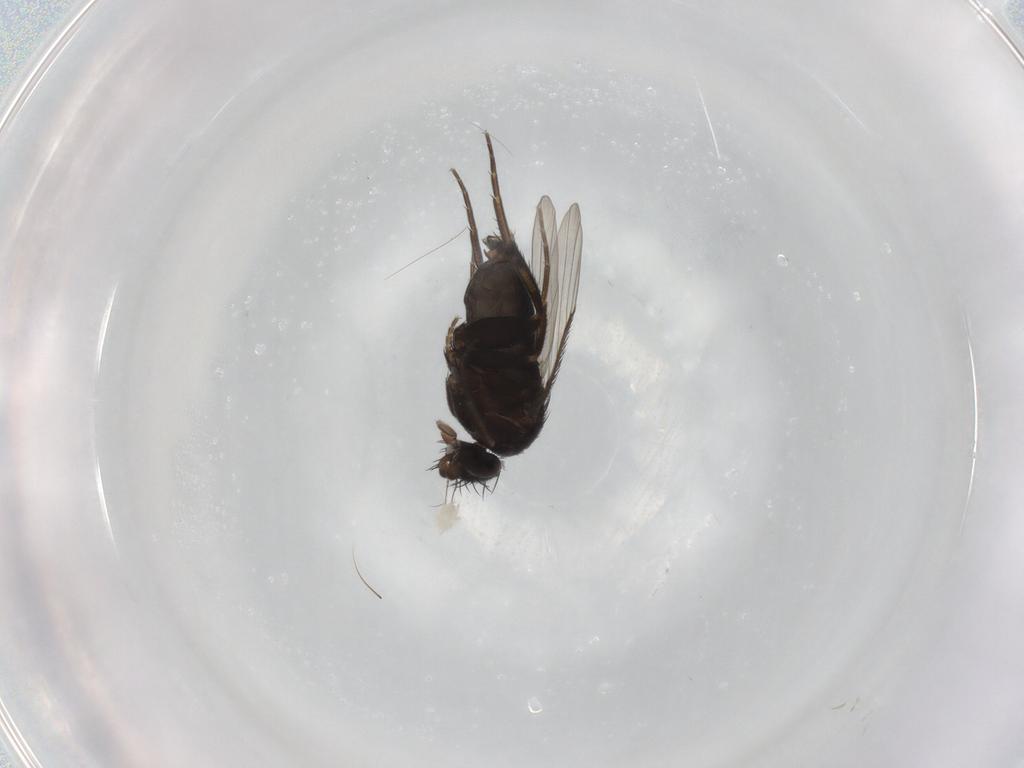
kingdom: Animalia
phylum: Arthropoda
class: Insecta
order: Diptera
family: Phoridae
